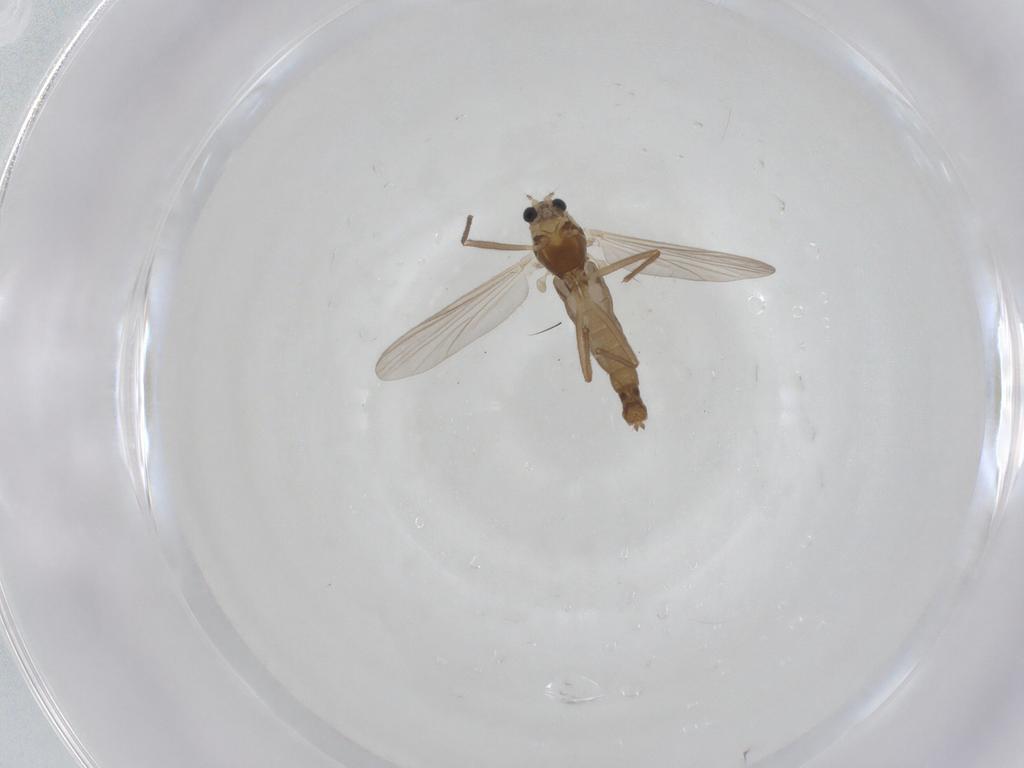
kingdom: Animalia
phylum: Arthropoda
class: Insecta
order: Diptera
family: Chironomidae
